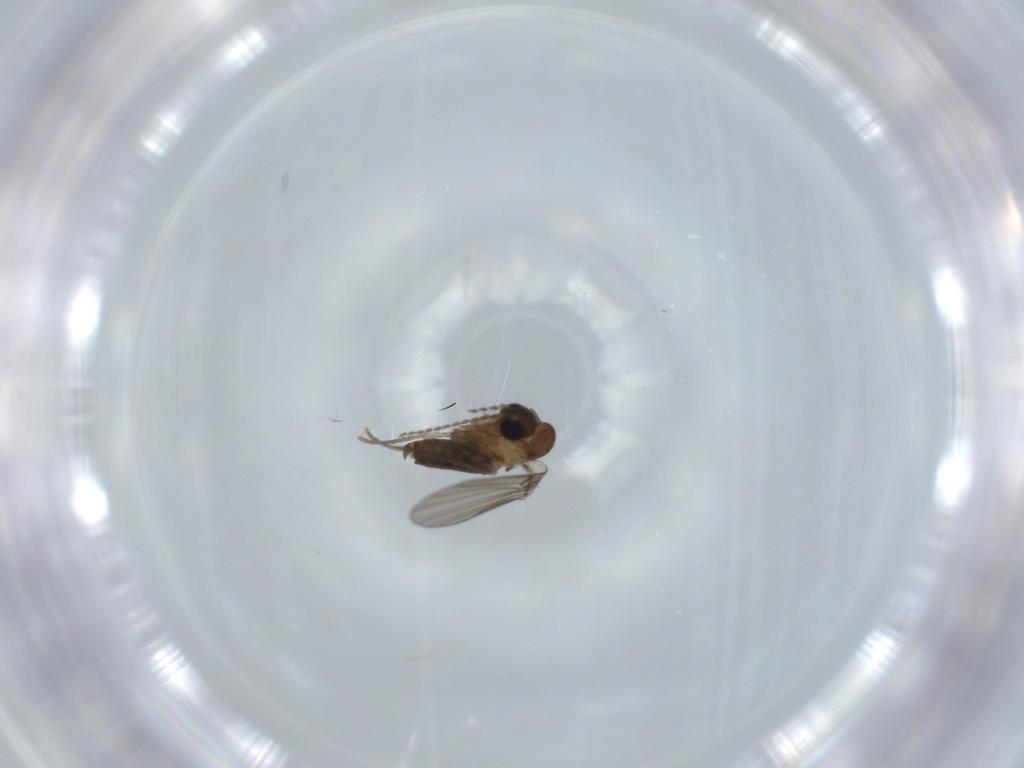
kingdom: Animalia
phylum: Arthropoda
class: Insecta
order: Diptera
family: Psychodidae
